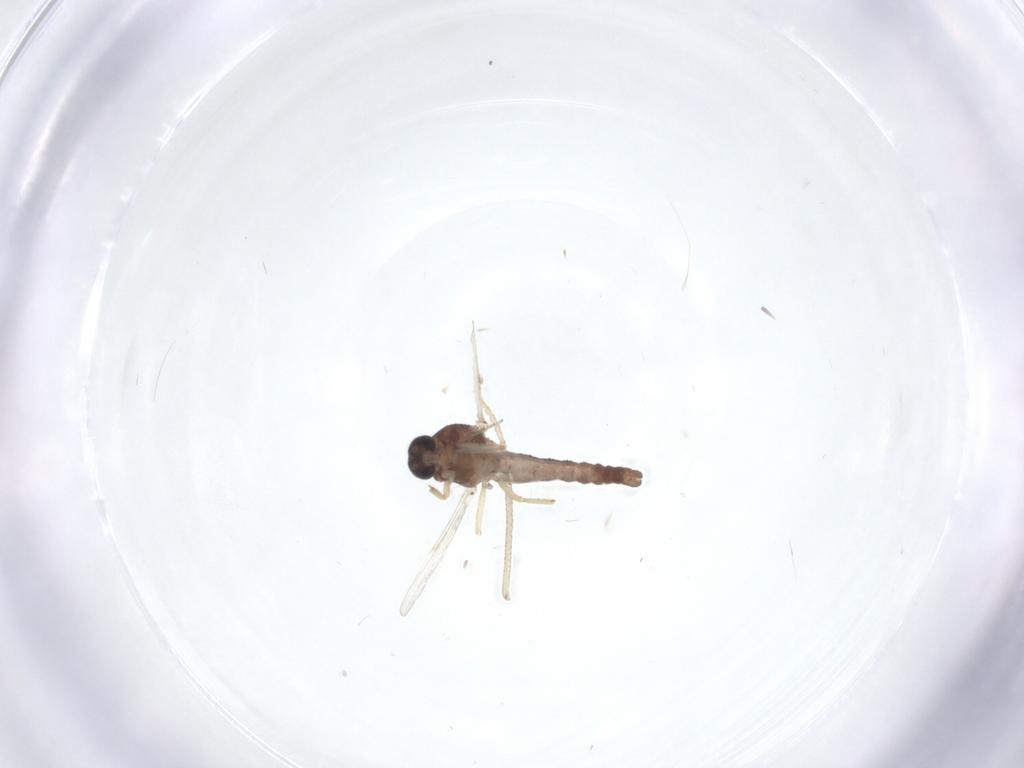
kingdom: Animalia
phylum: Arthropoda
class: Insecta
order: Diptera
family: Ceratopogonidae
